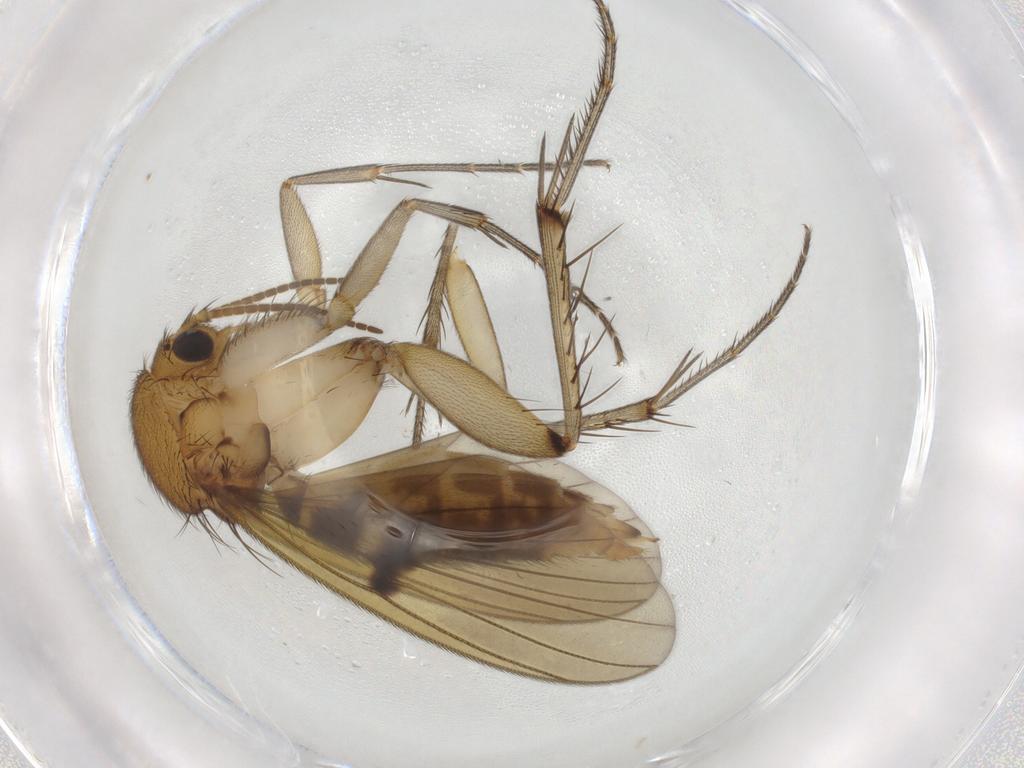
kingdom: Animalia
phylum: Arthropoda
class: Insecta
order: Diptera
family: Mycetophilidae
